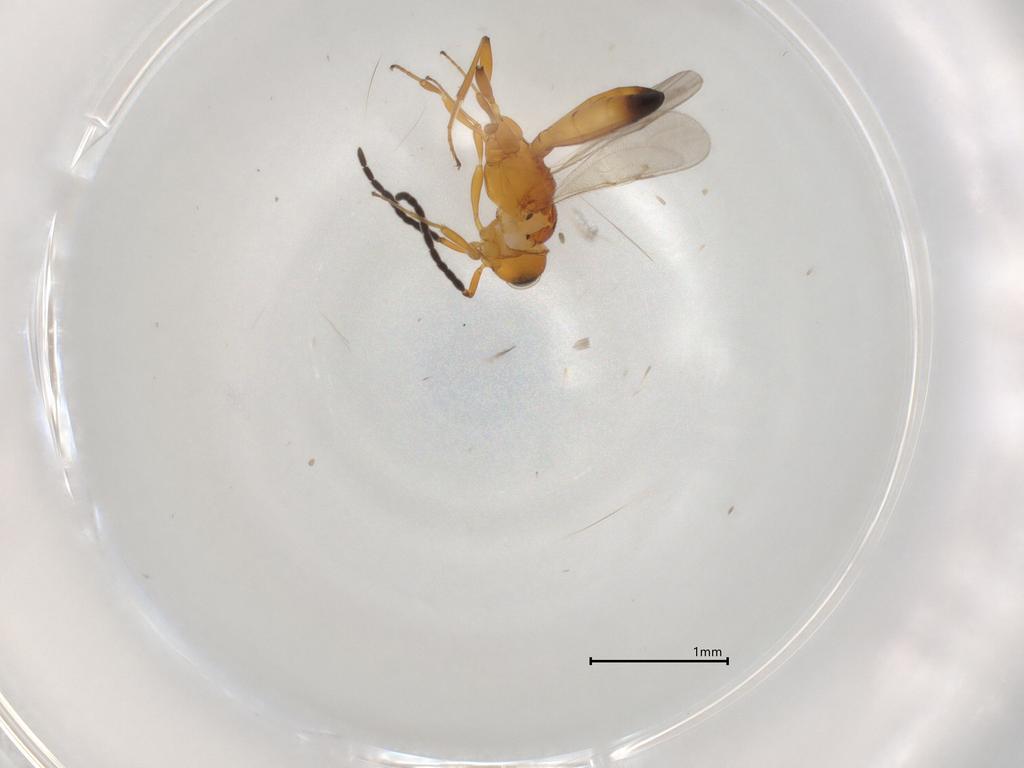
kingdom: Animalia
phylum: Arthropoda
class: Insecta
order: Hymenoptera
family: Scelionidae
